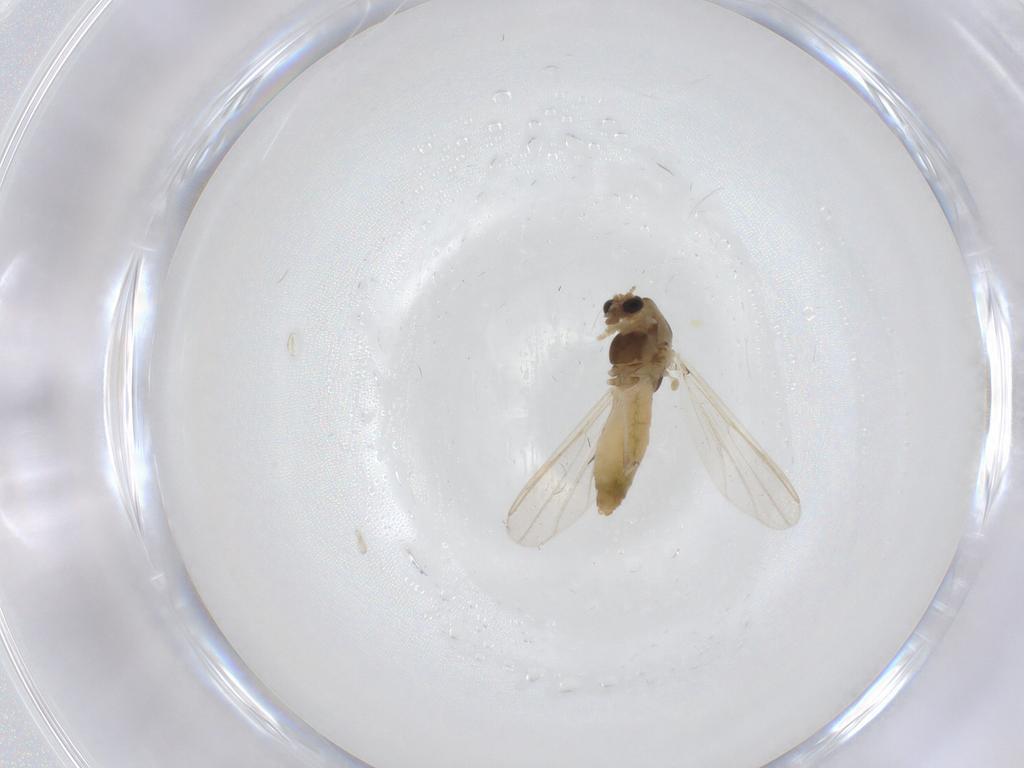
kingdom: Animalia
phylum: Arthropoda
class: Insecta
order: Diptera
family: Chironomidae
